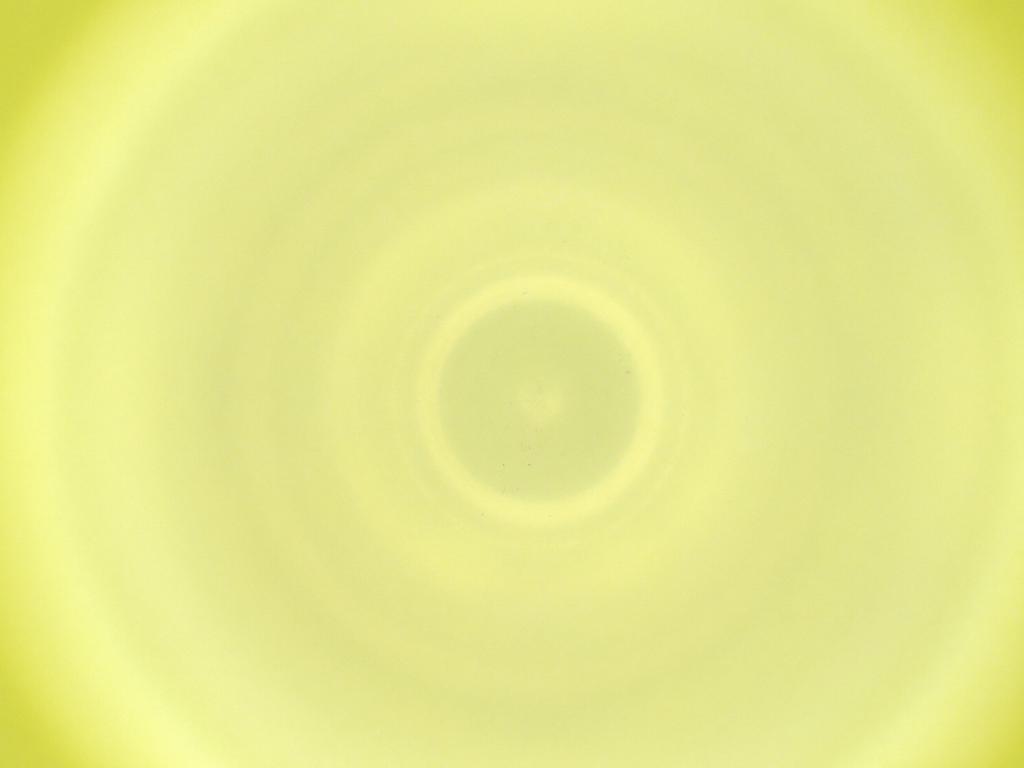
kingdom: Animalia
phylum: Arthropoda
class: Insecta
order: Diptera
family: Cecidomyiidae
